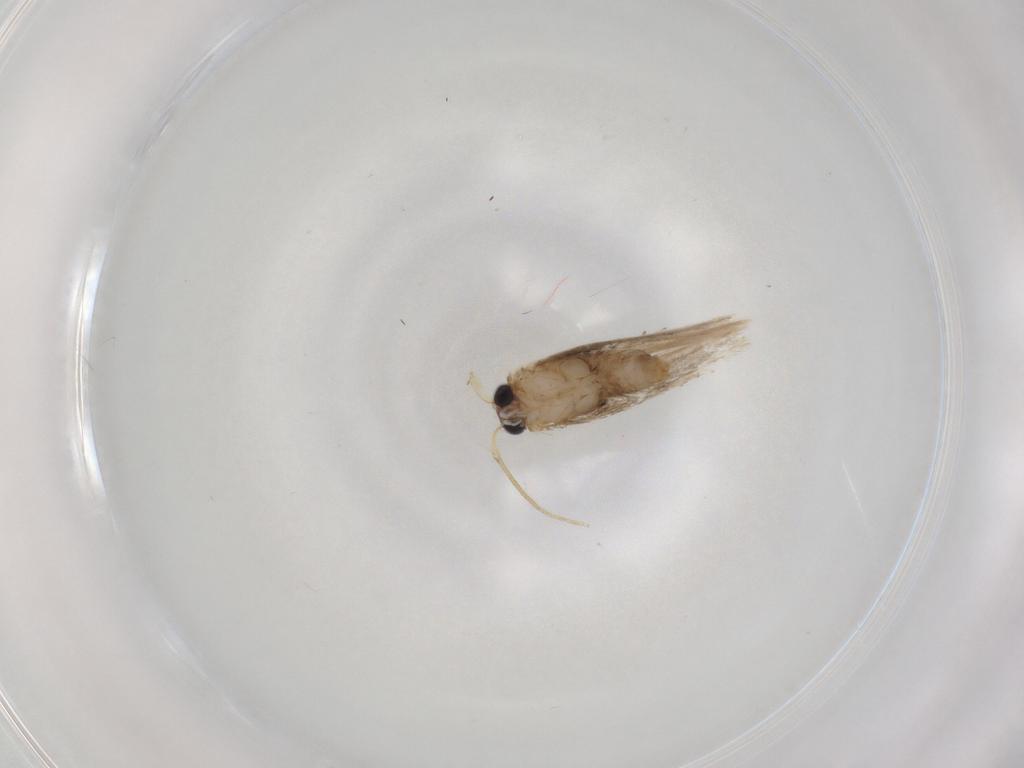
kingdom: Animalia
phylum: Arthropoda
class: Insecta
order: Lepidoptera
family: Nepticulidae
